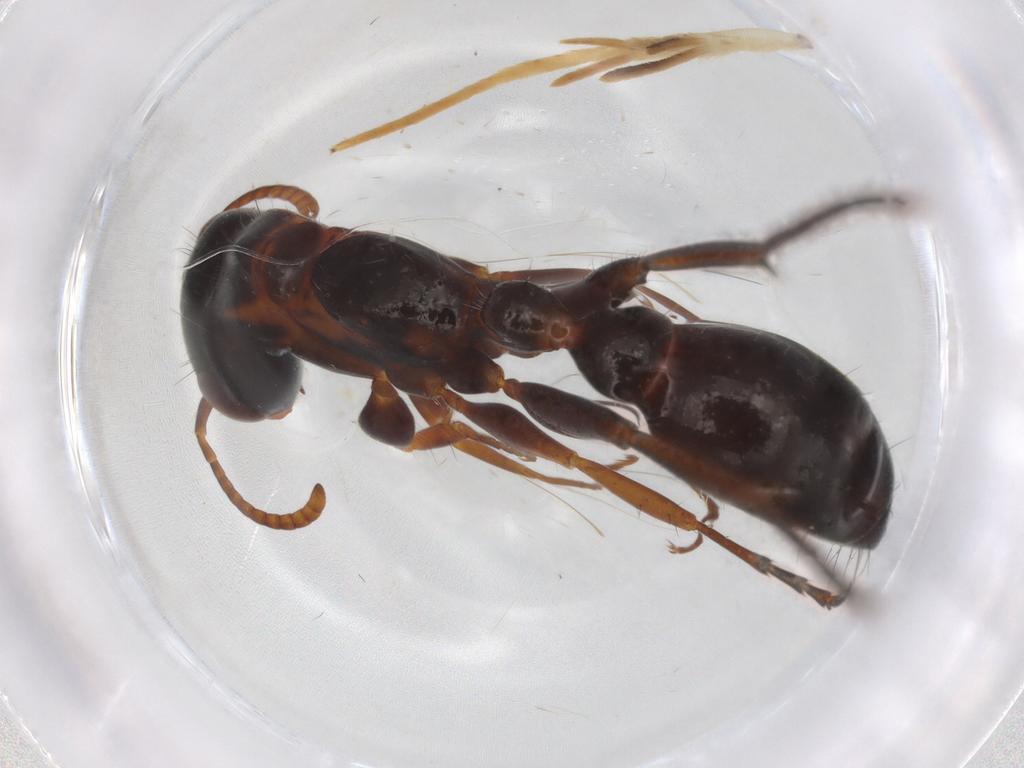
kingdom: Animalia
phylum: Arthropoda
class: Insecta
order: Hymenoptera
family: Formicidae
